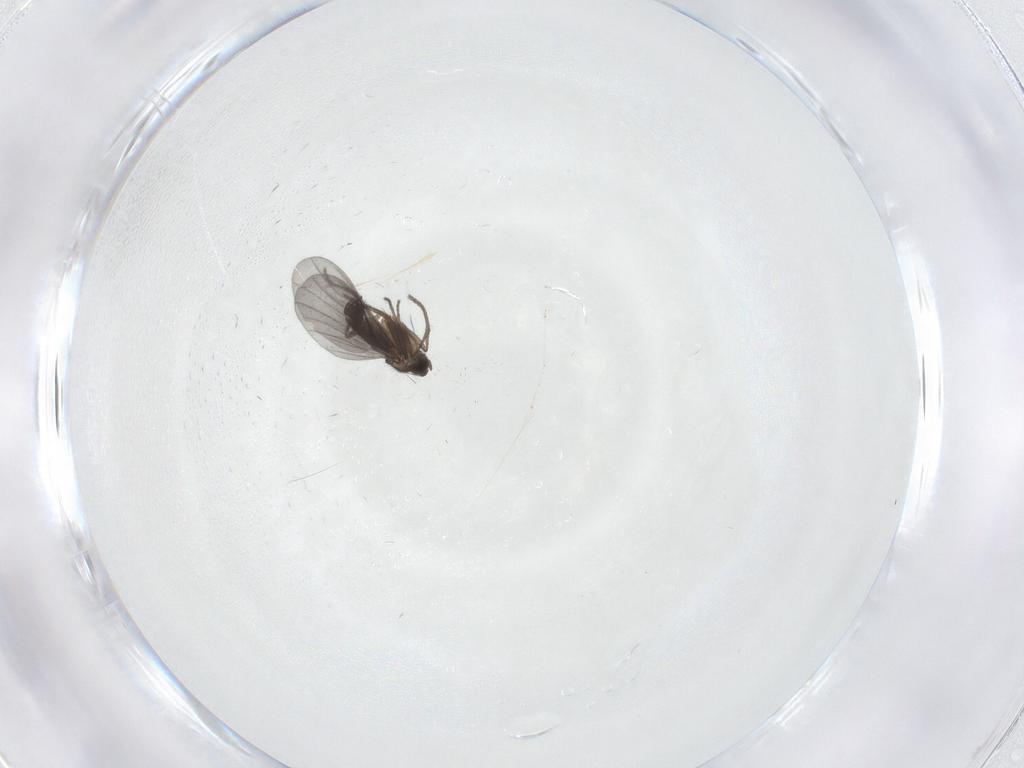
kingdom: Animalia
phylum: Arthropoda
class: Insecta
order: Diptera
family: Phoridae
